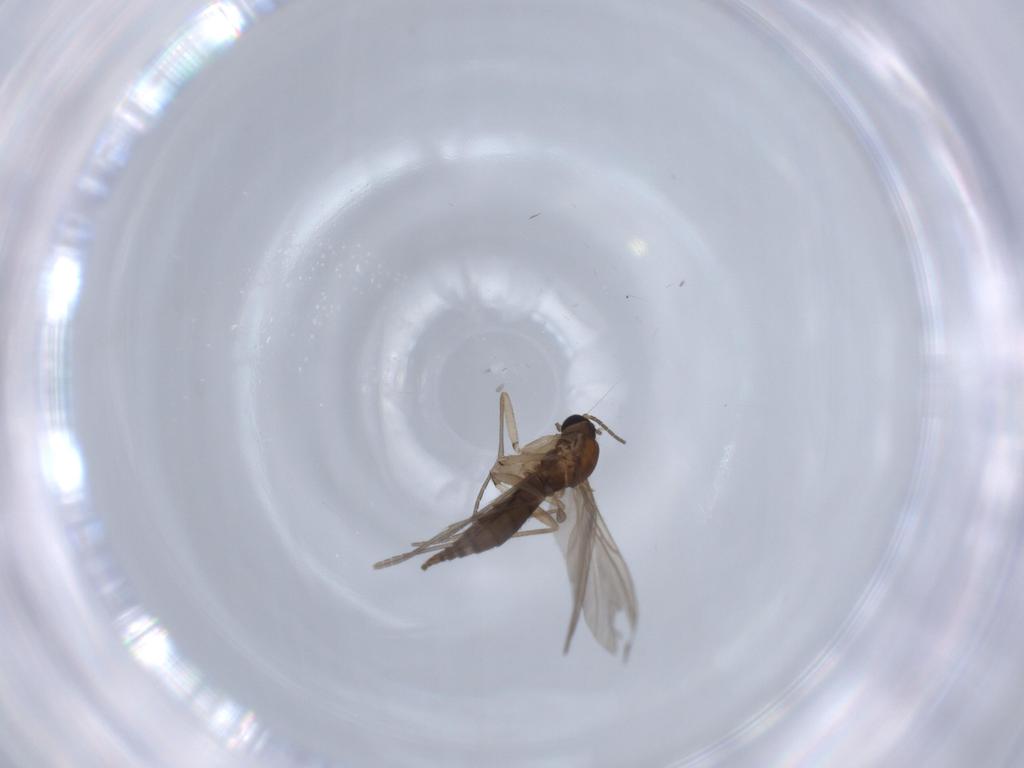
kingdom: Animalia
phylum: Arthropoda
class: Insecta
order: Diptera
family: Sciaridae
